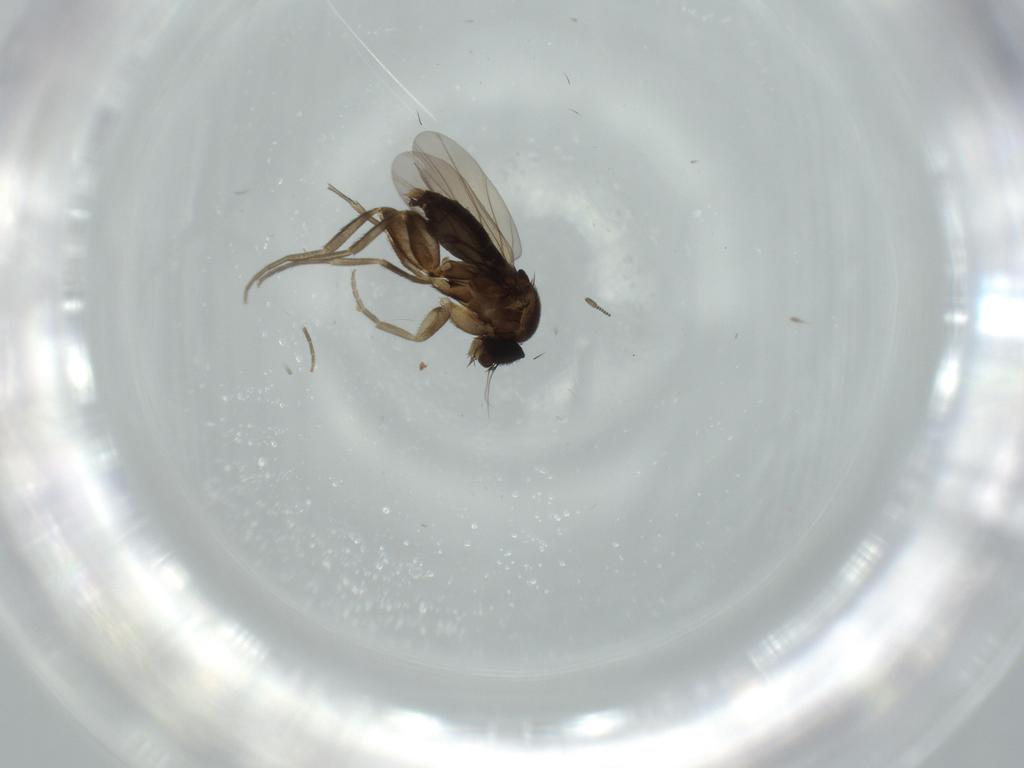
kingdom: Animalia
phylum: Arthropoda
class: Insecta
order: Diptera
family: Phoridae
